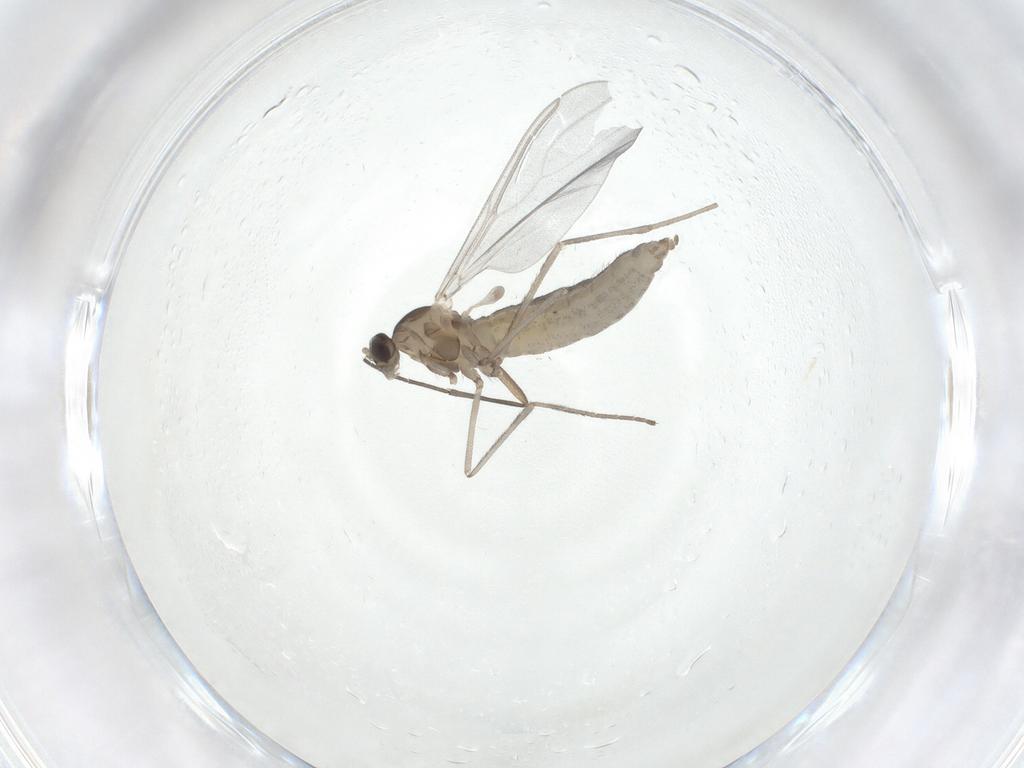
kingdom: Animalia
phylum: Arthropoda
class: Insecta
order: Diptera
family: Cecidomyiidae
